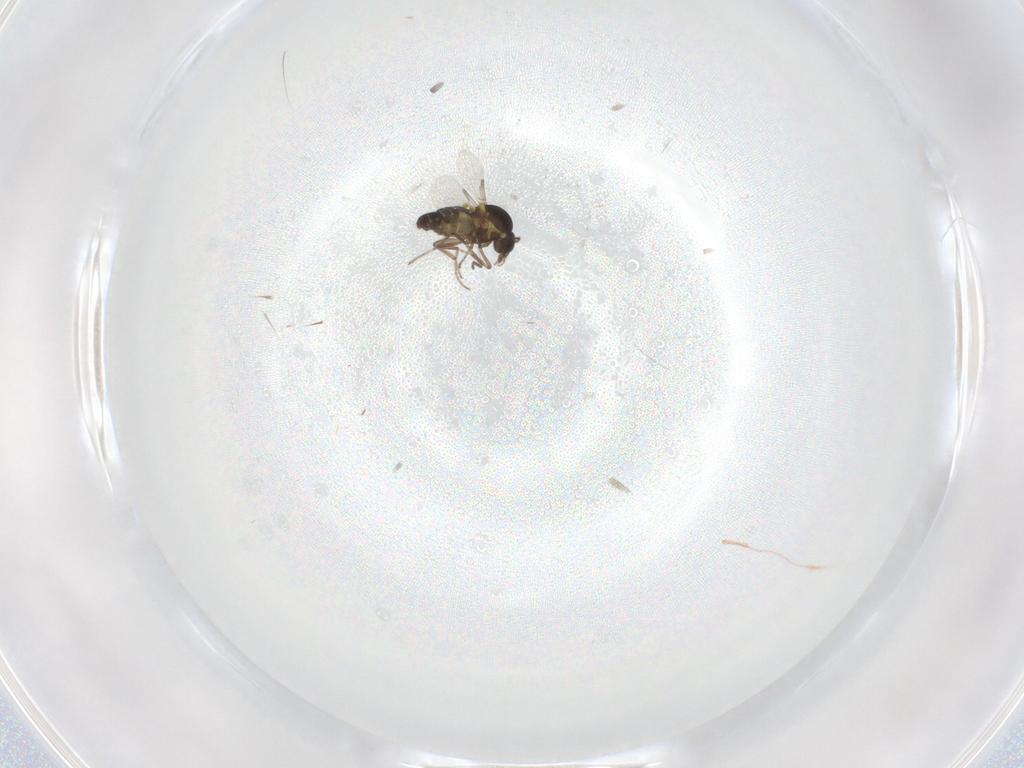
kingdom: Animalia
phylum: Arthropoda
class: Insecta
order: Diptera
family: Ceratopogonidae
